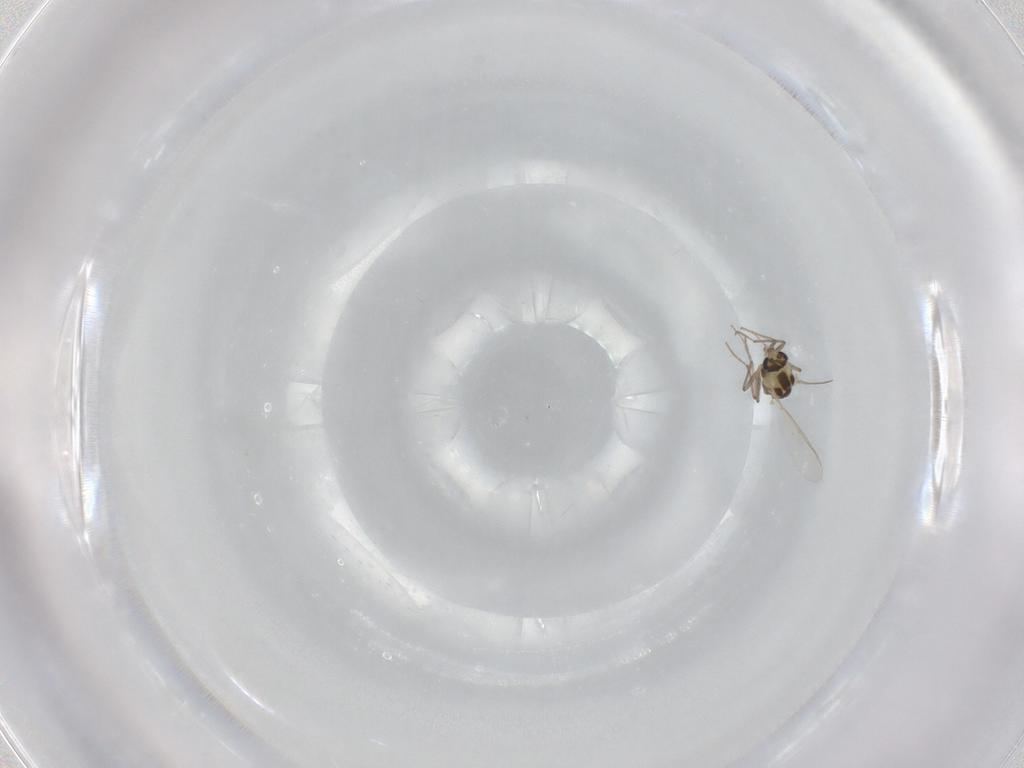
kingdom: Animalia
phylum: Arthropoda
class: Insecta
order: Diptera
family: Chironomidae
